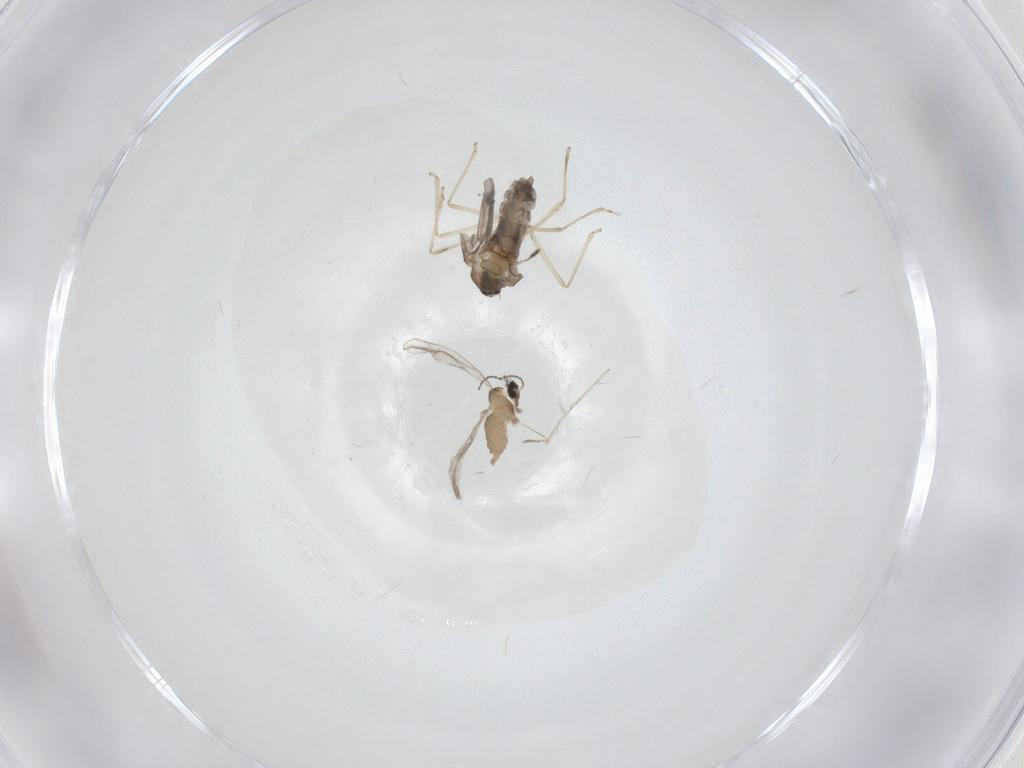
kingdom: Animalia
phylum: Arthropoda
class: Insecta
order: Diptera
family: Cecidomyiidae
